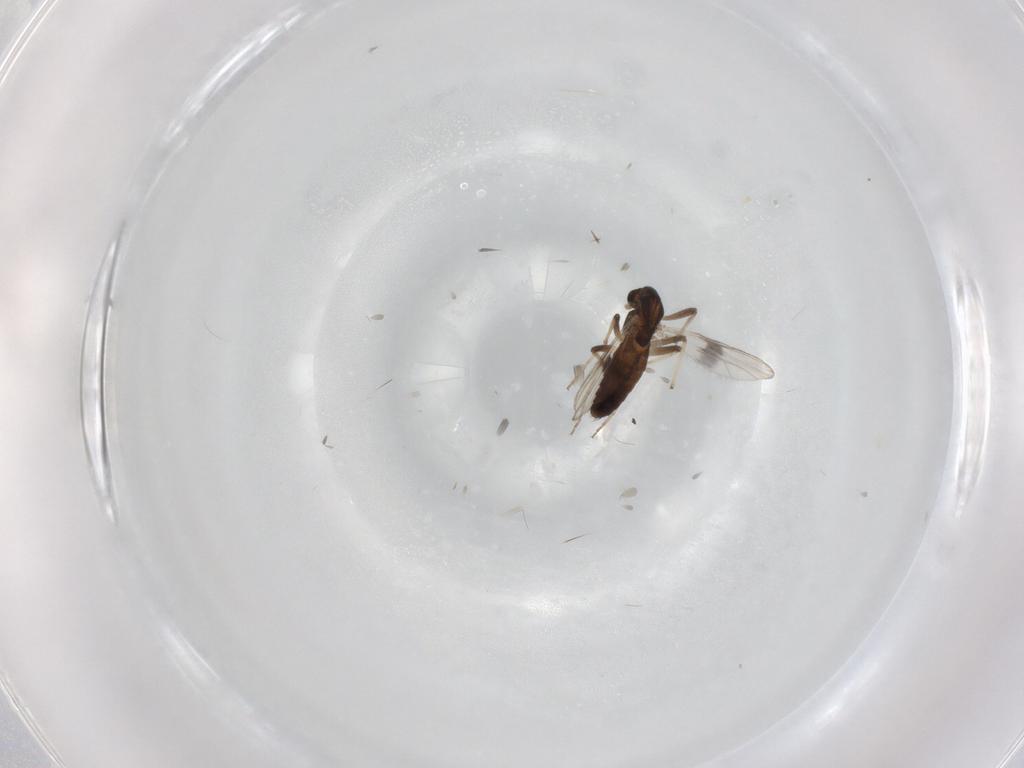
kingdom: Animalia
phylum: Arthropoda
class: Insecta
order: Diptera
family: Chironomidae
